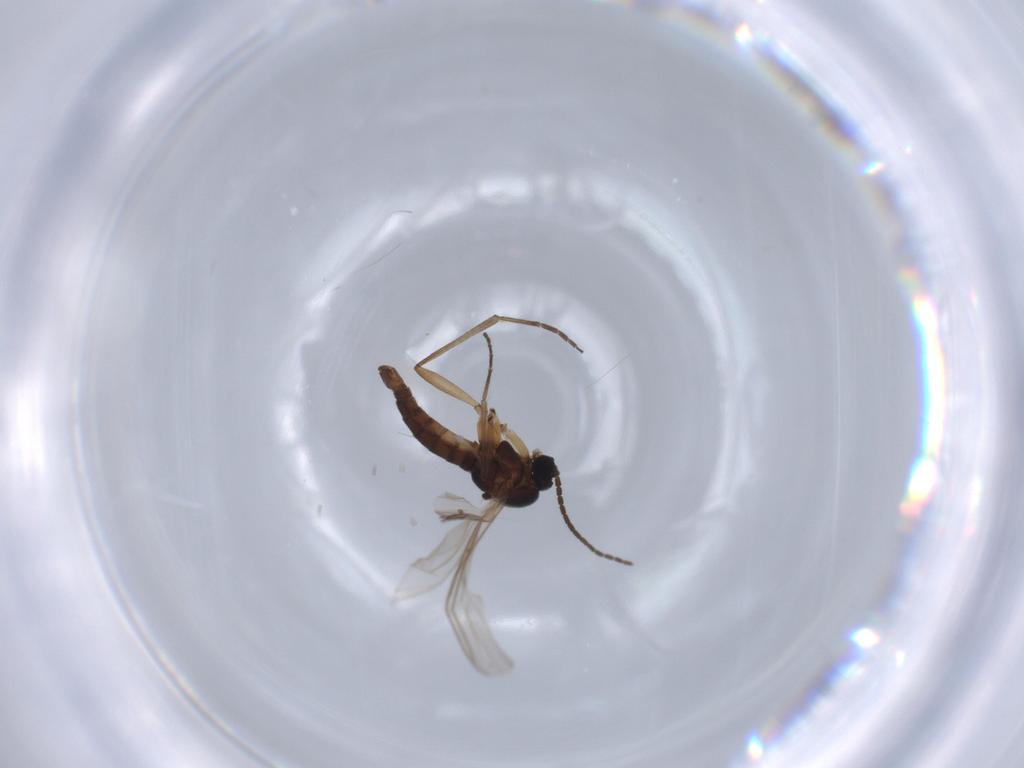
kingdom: Animalia
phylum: Arthropoda
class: Insecta
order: Diptera
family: Sciaridae
